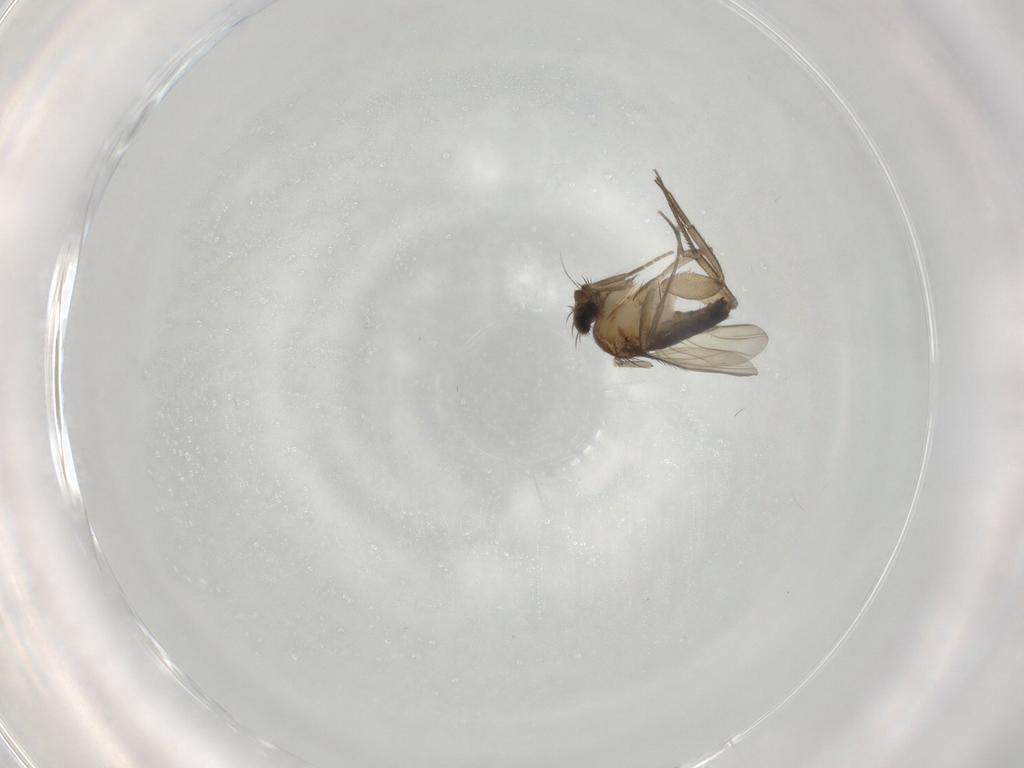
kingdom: Animalia
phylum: Arthropoda
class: Insecta
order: Diptera
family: Phoridae
